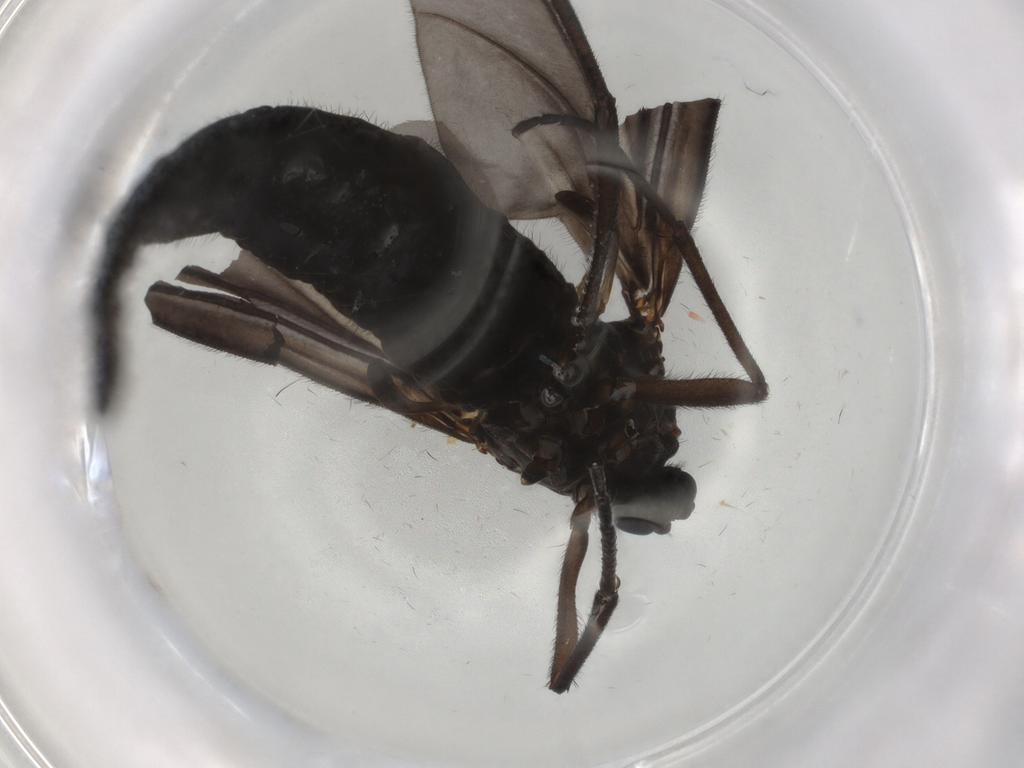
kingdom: Animalia
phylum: Arthropoda
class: Insecta
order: Diptera
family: Sciaridae
